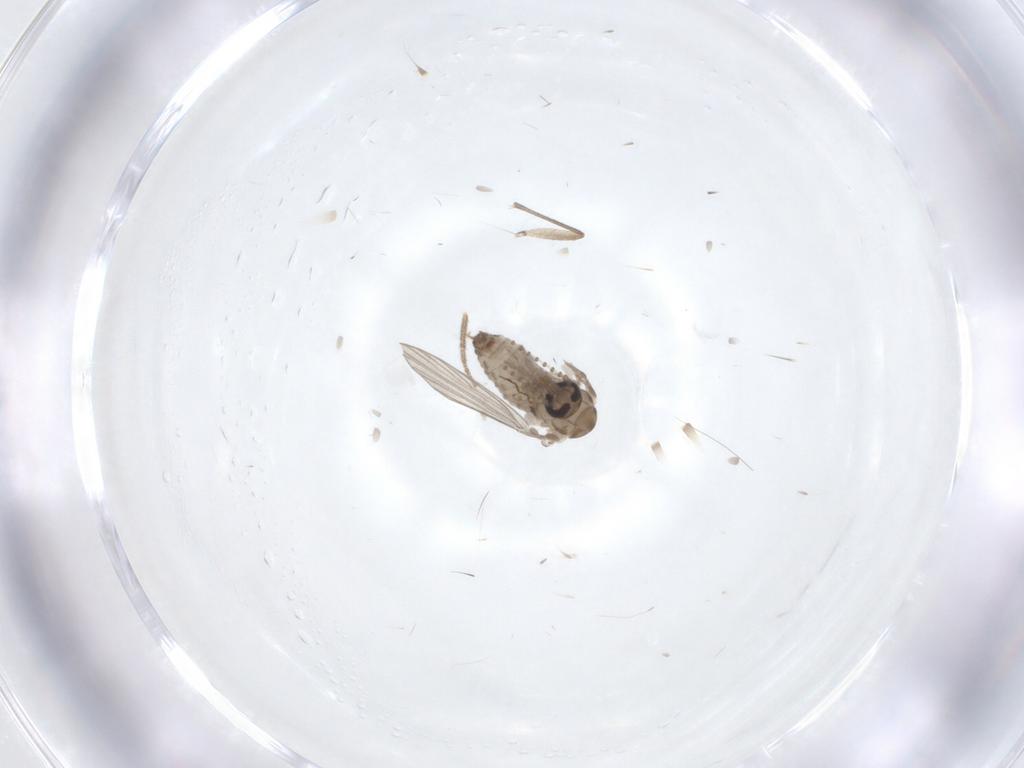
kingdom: Animalia
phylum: Arthropoda
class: Insecta
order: Diptera
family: Psychodidae
